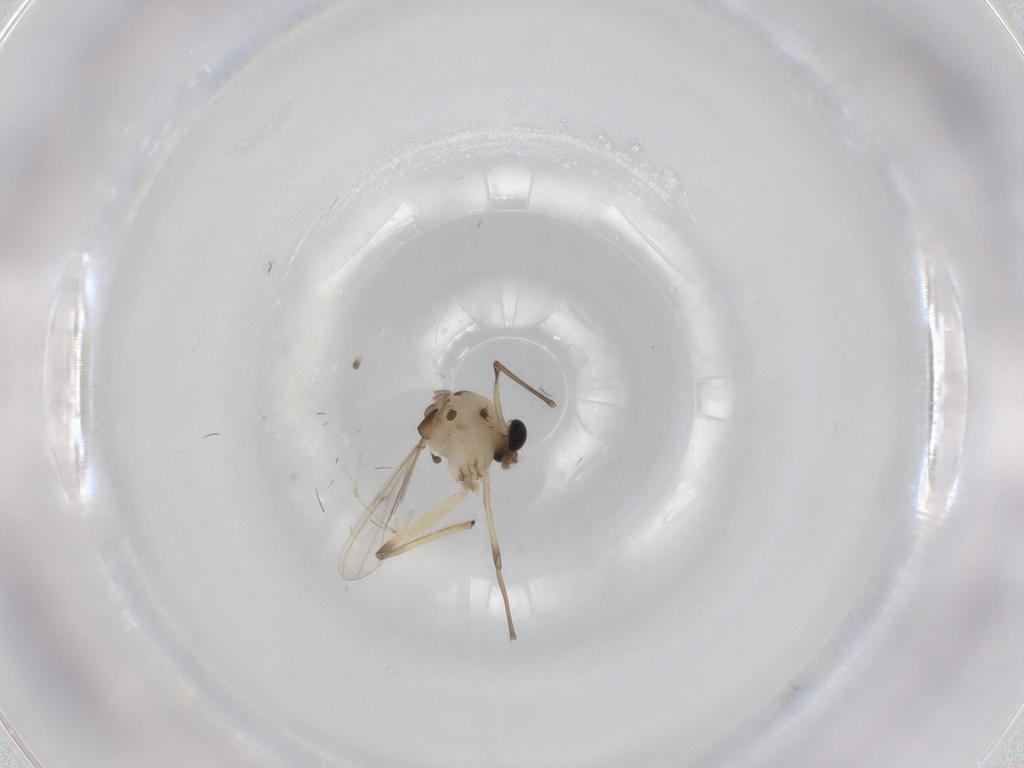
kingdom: Animalia
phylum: Arthropoda
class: Insecta
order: Diptera
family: Chironomidae
